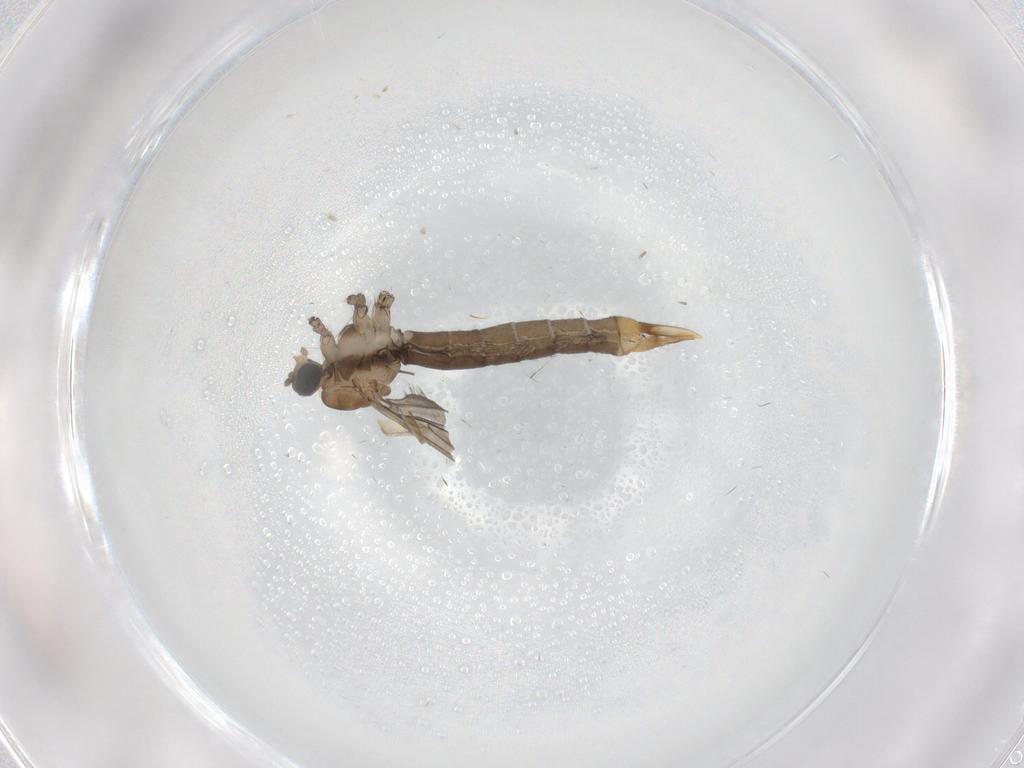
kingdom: Animalia
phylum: Arthropoda
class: Insecta
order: Diptera
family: Limoniidae
